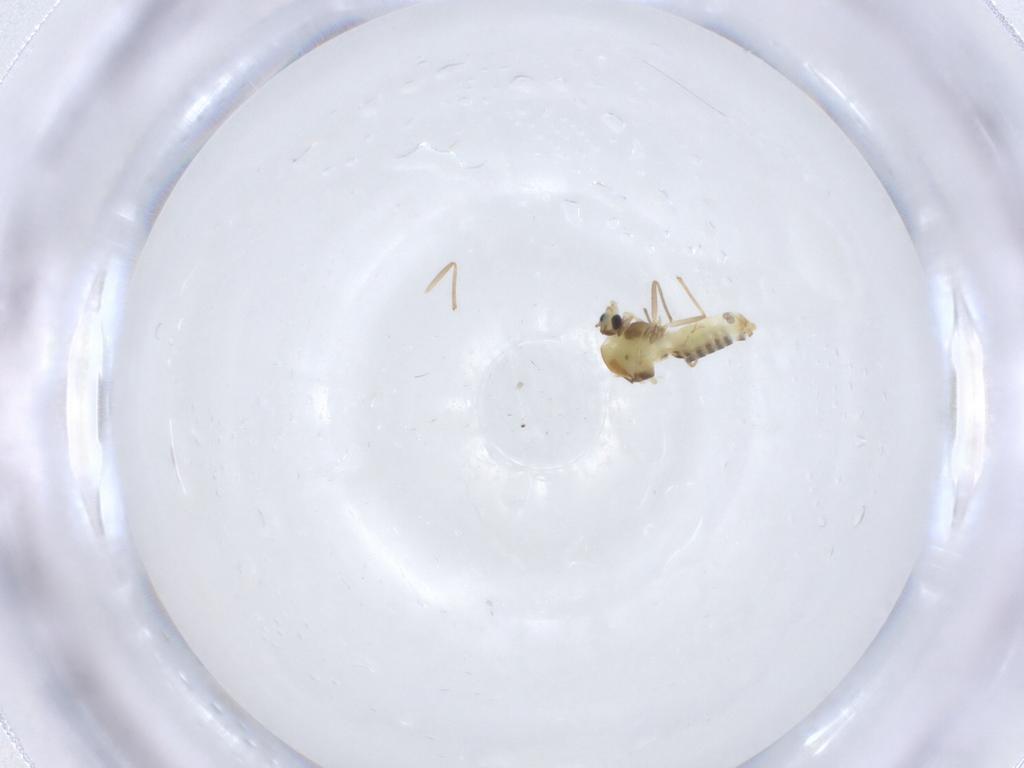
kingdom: Animalia
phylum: Arthropoda
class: Insecta
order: Diptera
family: Chironomidae
